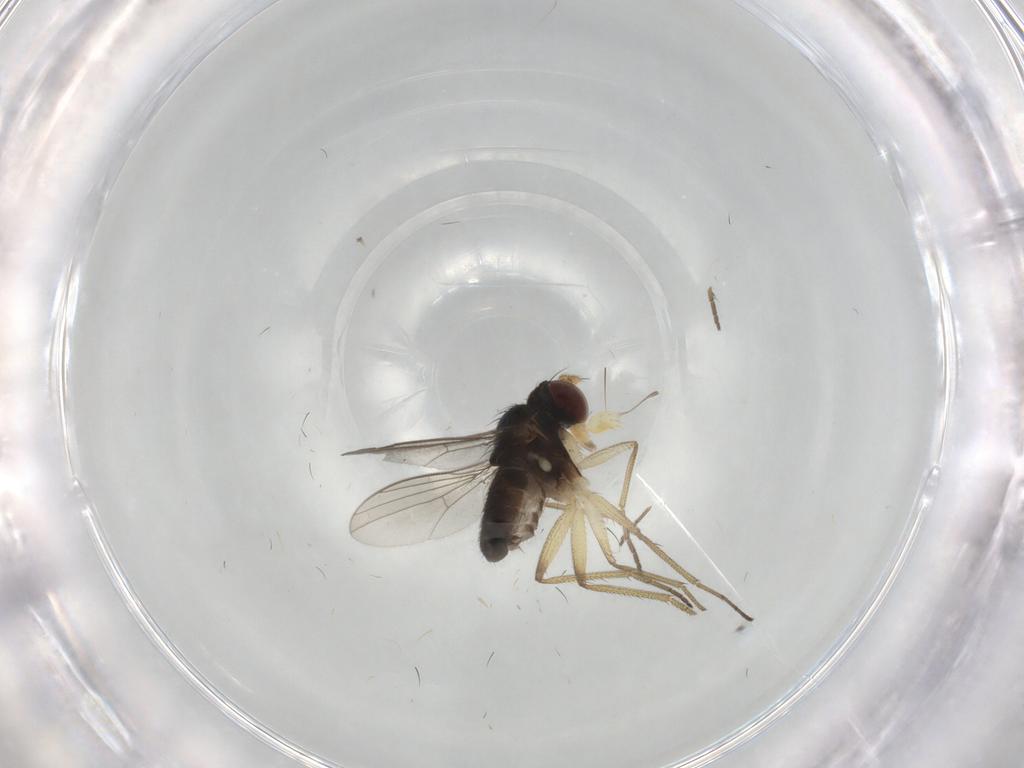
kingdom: Animalia
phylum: Arthropoda
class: Insecta
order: Diptera
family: Dolichopodidae
